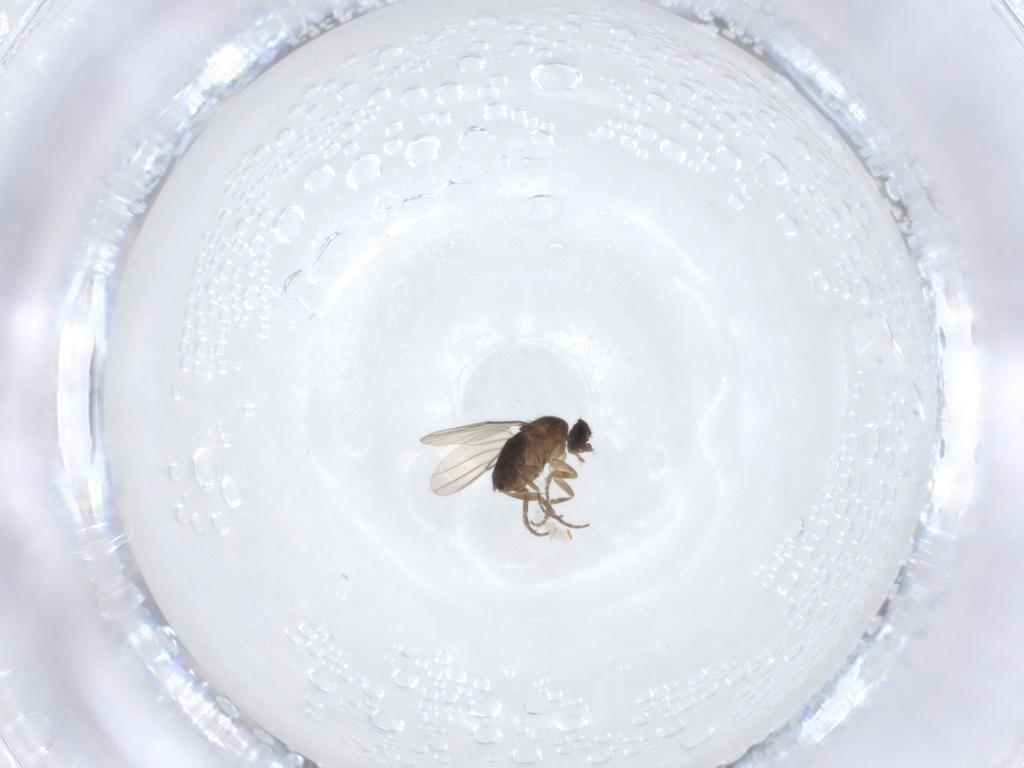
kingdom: Animalia
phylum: Arthropoda
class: Insecta
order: Diptera
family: Phoridae
